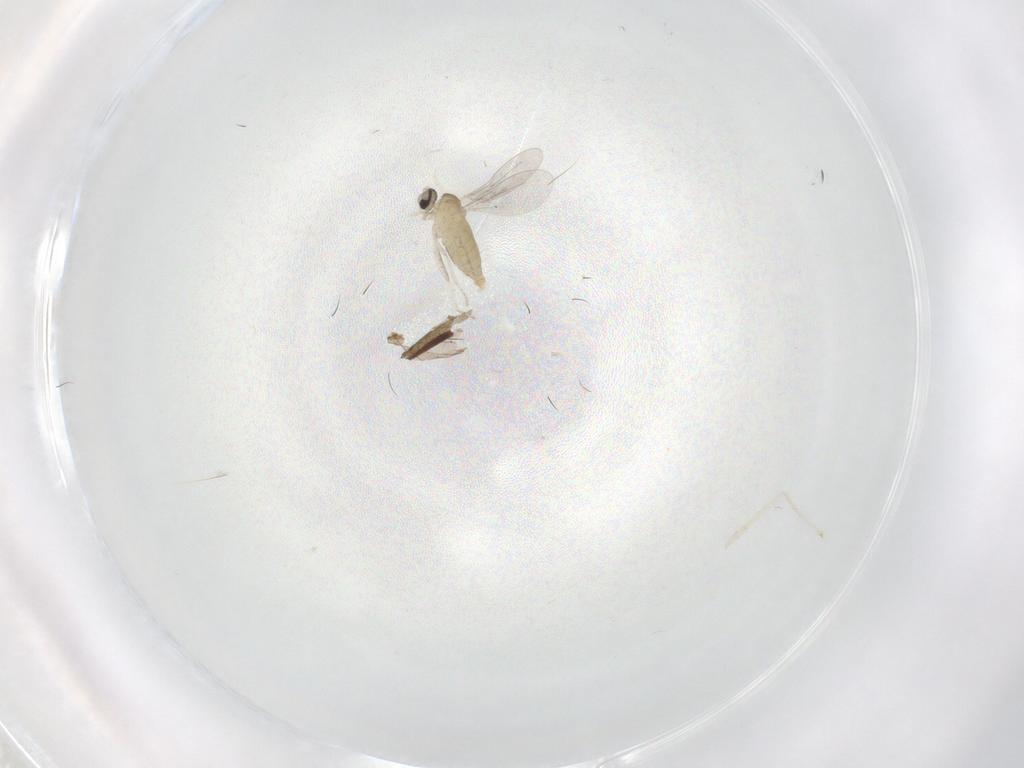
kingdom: Animalia
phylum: Arthropoda
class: Insecta
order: Diptera
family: Cecidomyiidae
